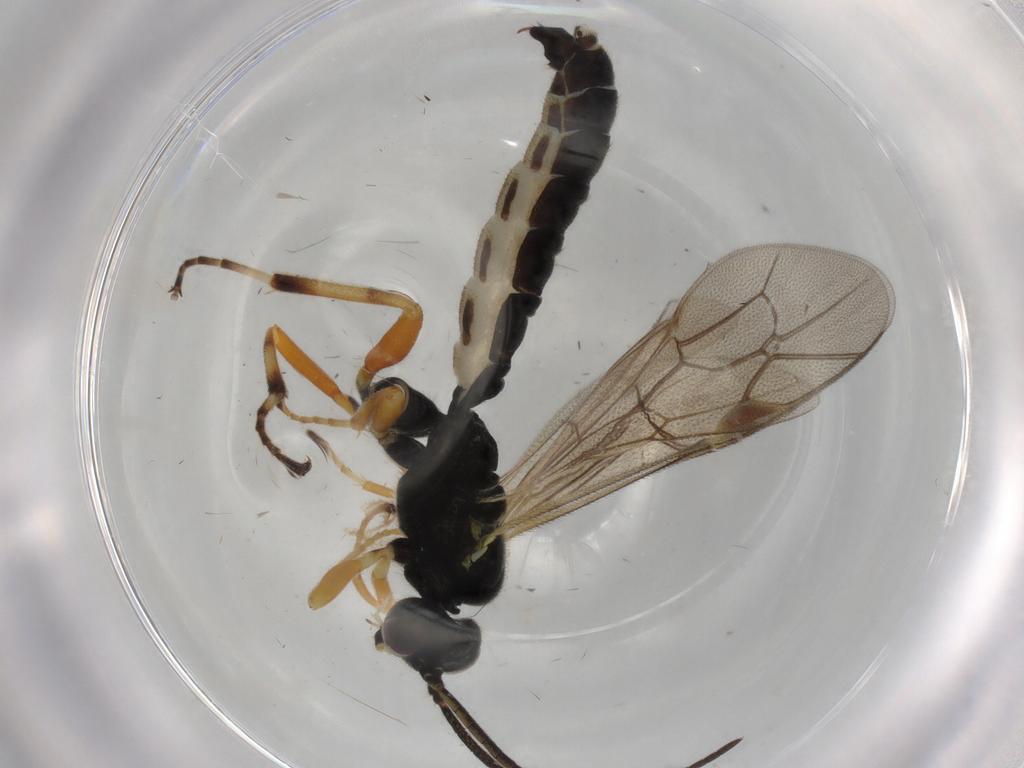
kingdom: Animalia
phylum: Arthropoda
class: Insecta
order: Hymenoptera
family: Ichneumonidae
